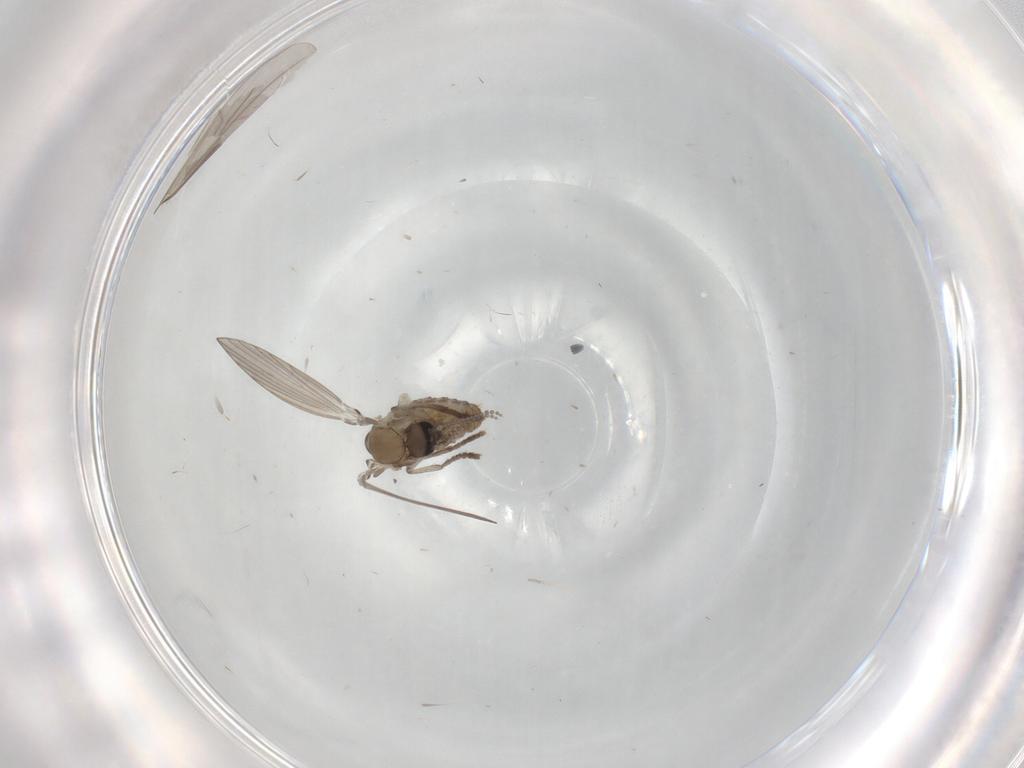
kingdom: Animalia
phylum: Arthropoda
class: Insecta
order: Diptera
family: Psychodidae
